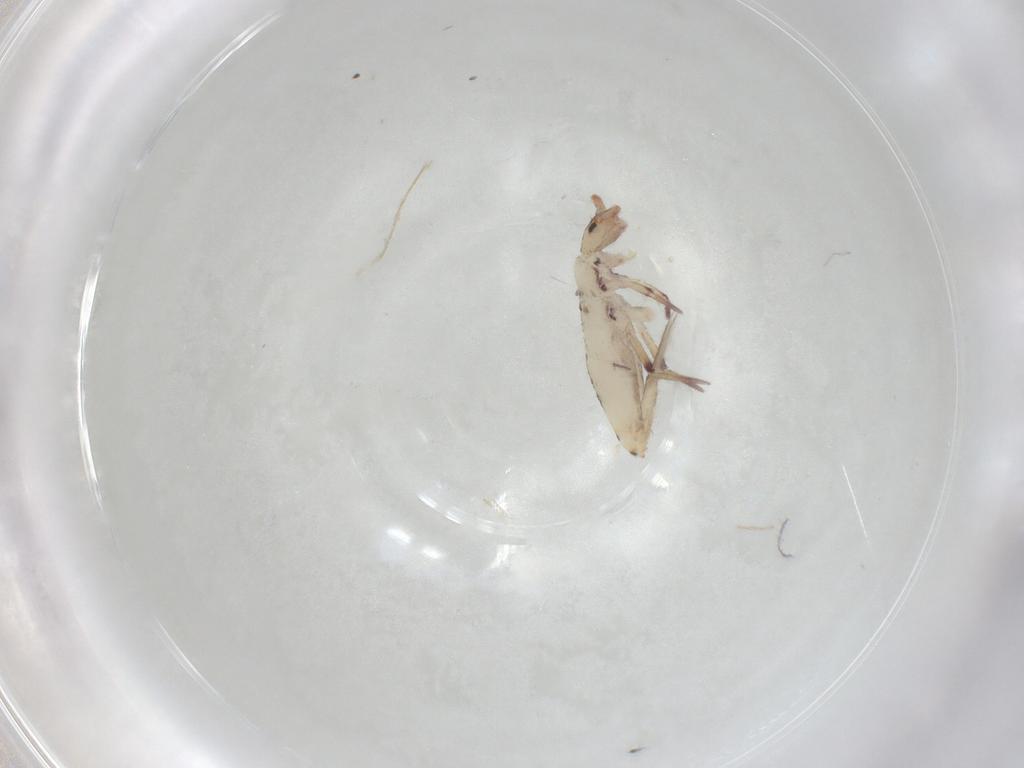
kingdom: Animalia
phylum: Arthropoda
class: Collembola
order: Entomobryomorpha
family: Entomobryidae
